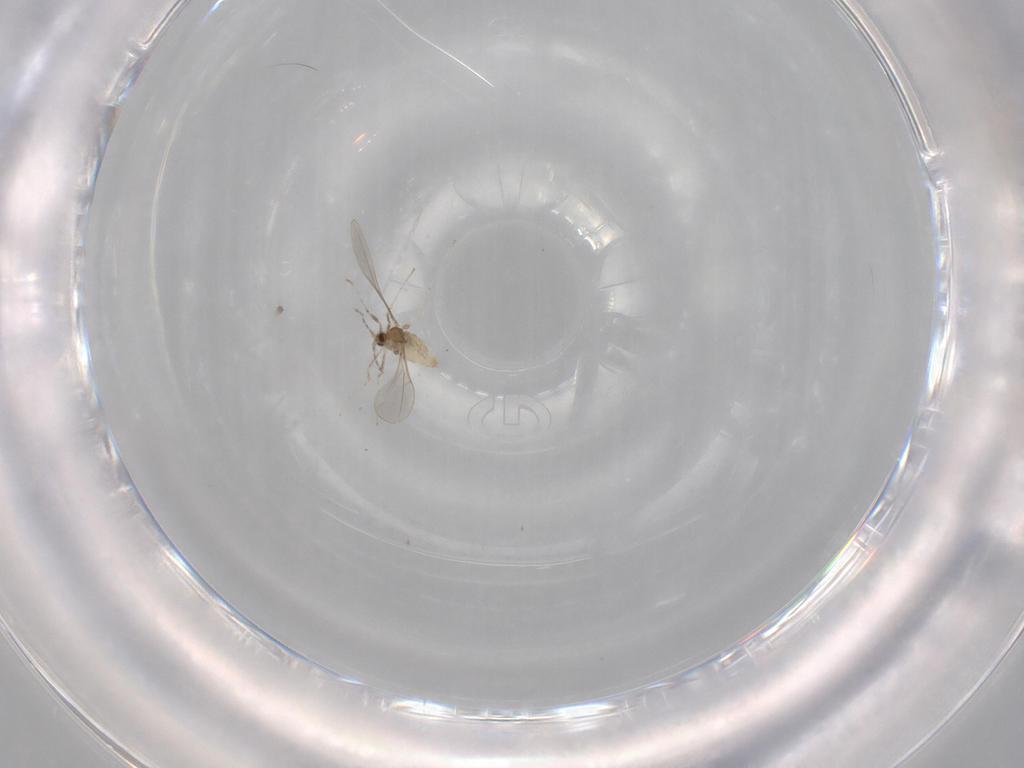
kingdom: Animalia
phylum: Arthropoda
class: Insecta
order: Diptera
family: Cecidomyiidae
